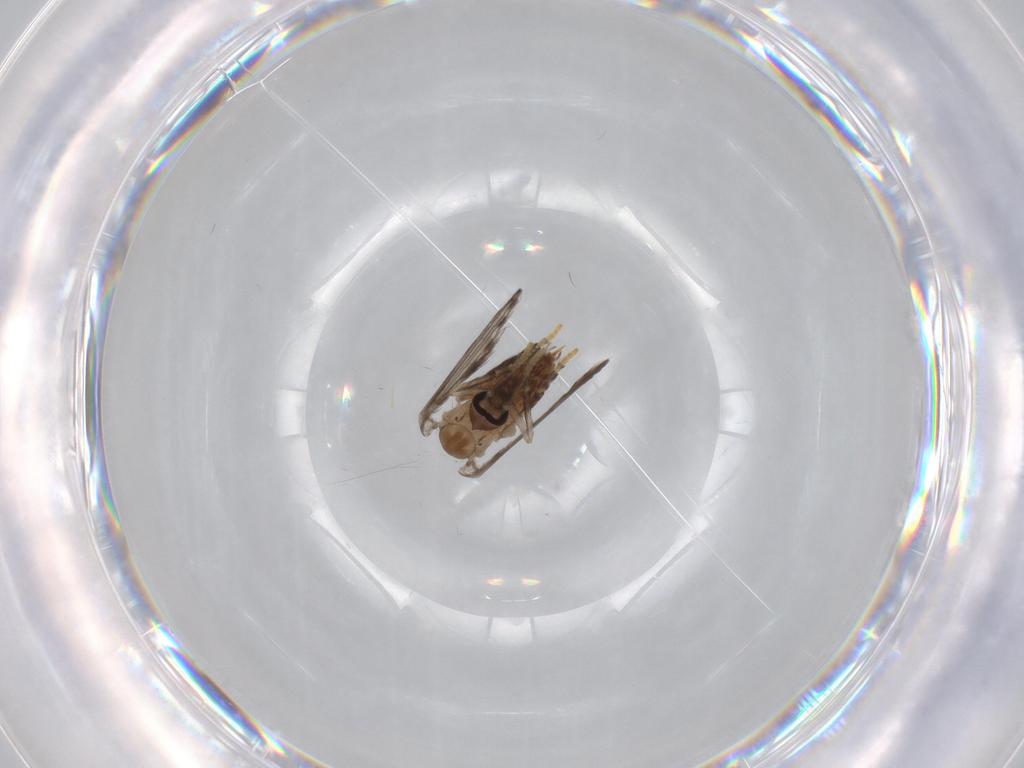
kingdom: Animalia
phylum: Arthropoda
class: Insecta
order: Diptera
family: Psychodidae
